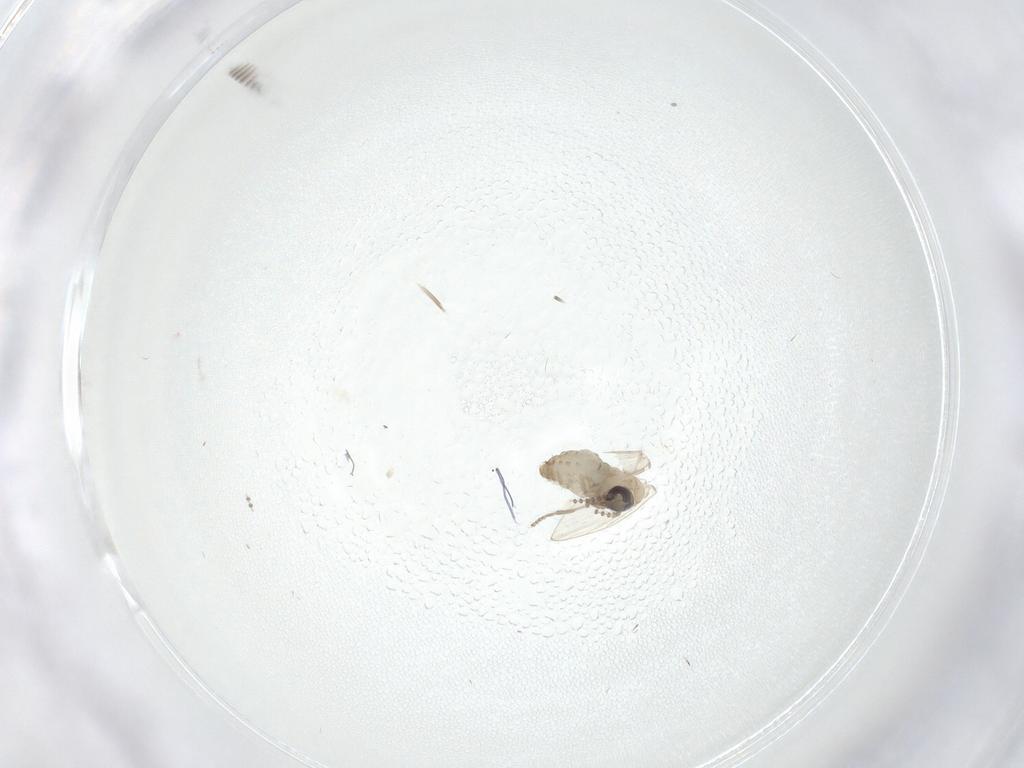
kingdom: Animalia
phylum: Arthropoda
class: Insecta
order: Diptera
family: Psychodidae
